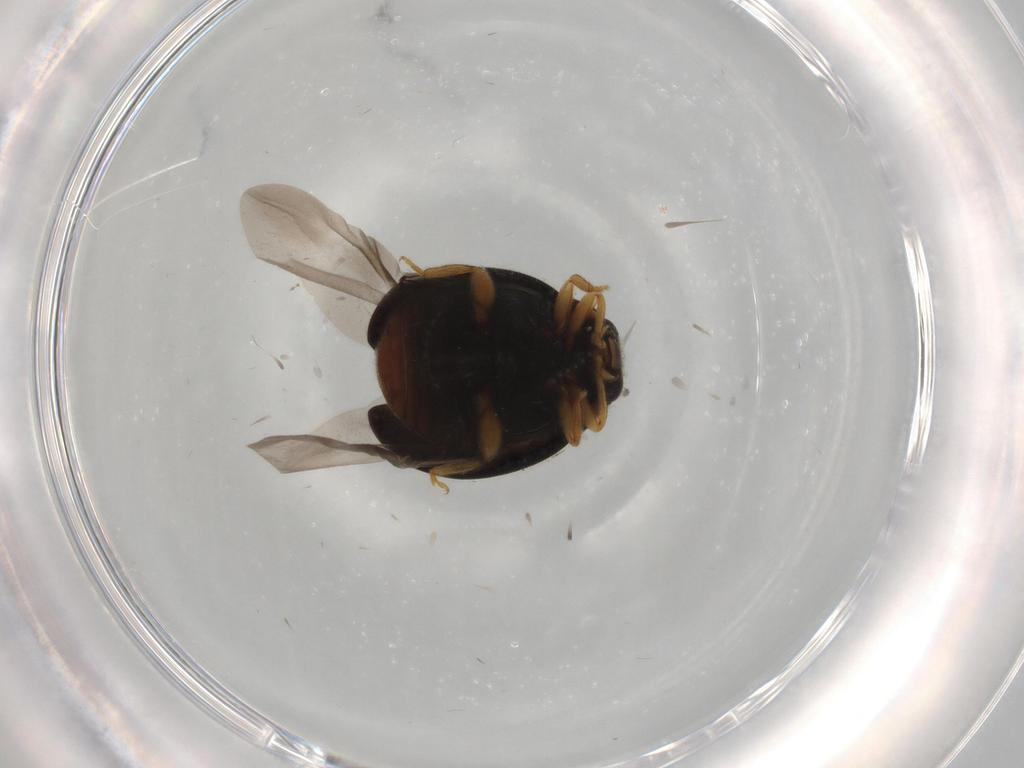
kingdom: Animalia
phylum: Arthropoda
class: Insecta
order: Coleoptera
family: Coccinellidae
